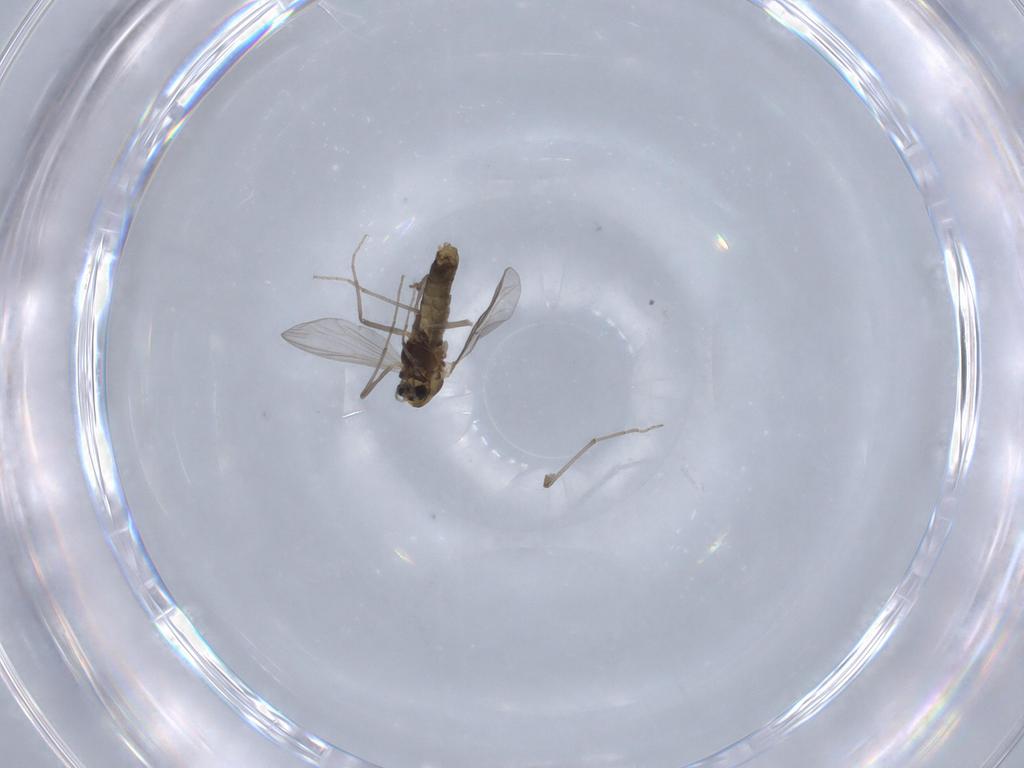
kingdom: Animalia
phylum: Arthropoda
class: Insecta
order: Diptera
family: Chironomidae
